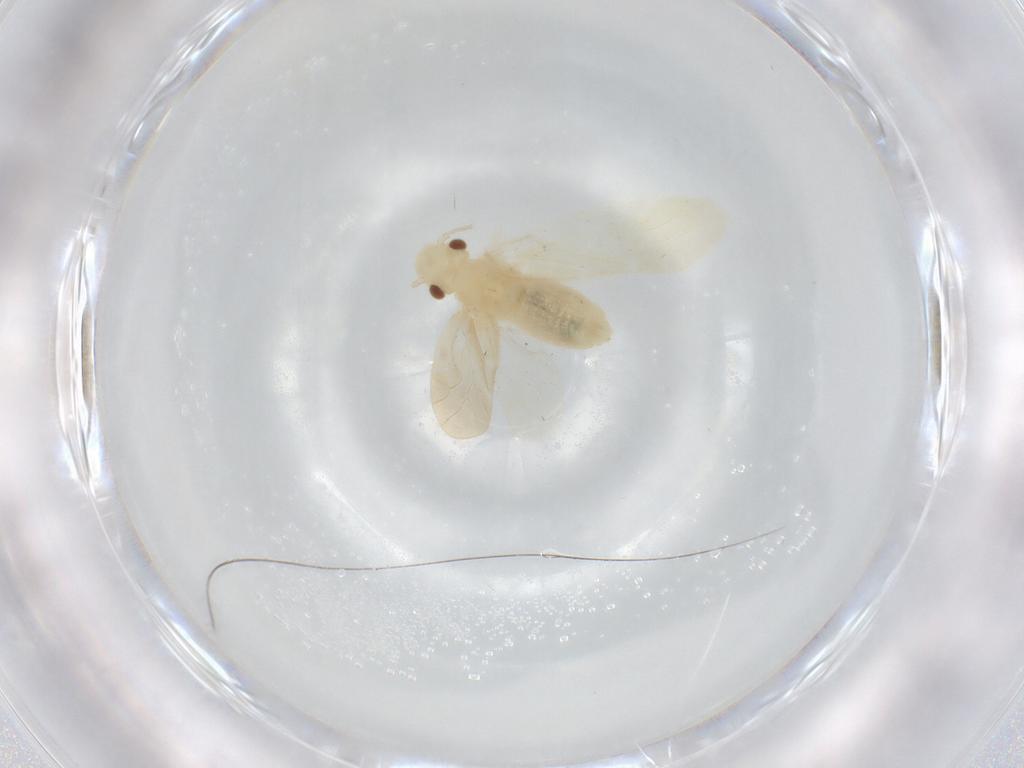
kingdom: Animalia
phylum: Arthropoda
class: Insecta
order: Psocodea
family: Caeciliusidae
